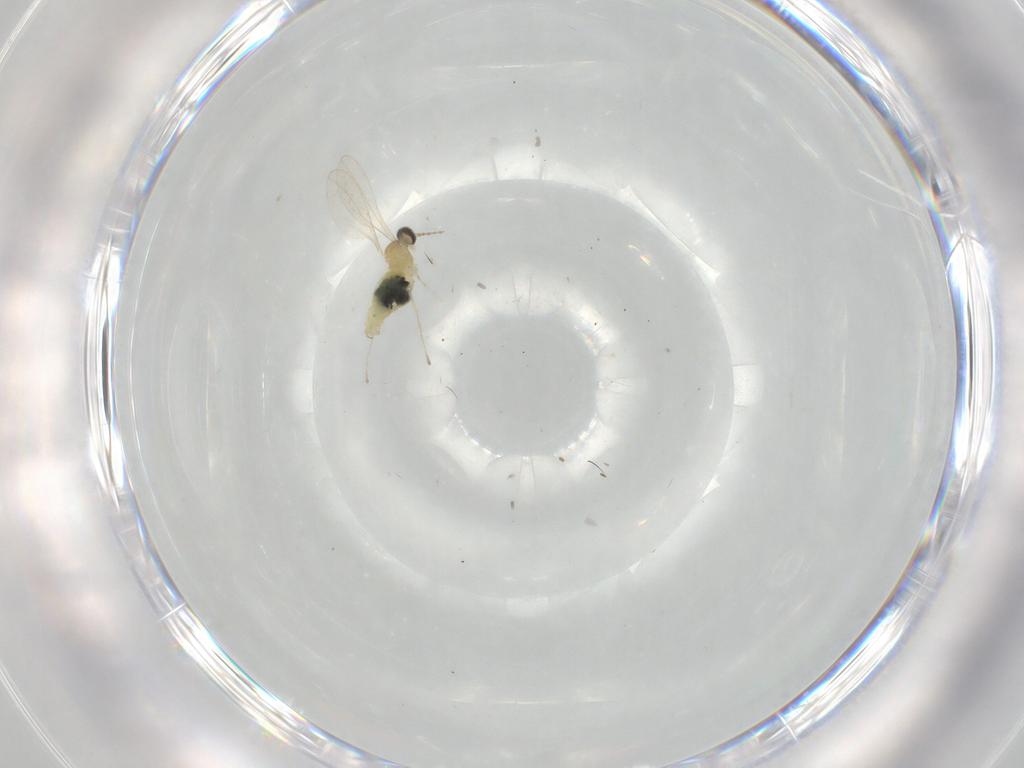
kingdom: Animalia
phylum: Arthropoda
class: Insecta
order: Diptera
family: Cecidomyiidae
